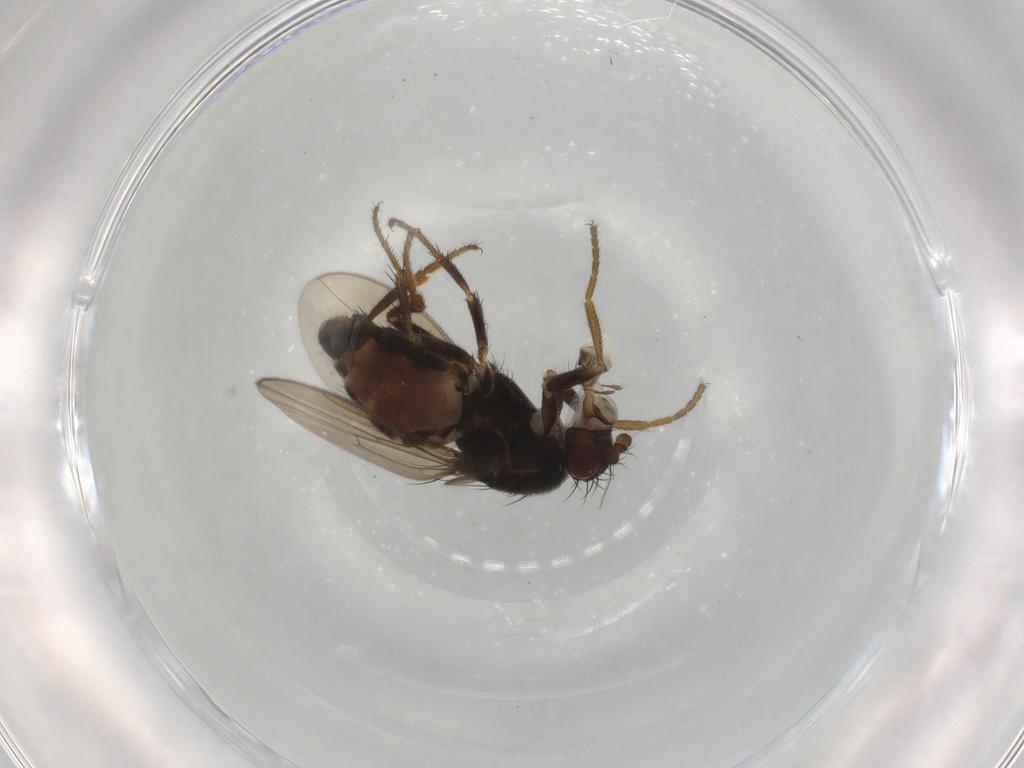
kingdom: Animalia
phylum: Arthropoda
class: Insecta
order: Diptera
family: Sphaeroceridae
